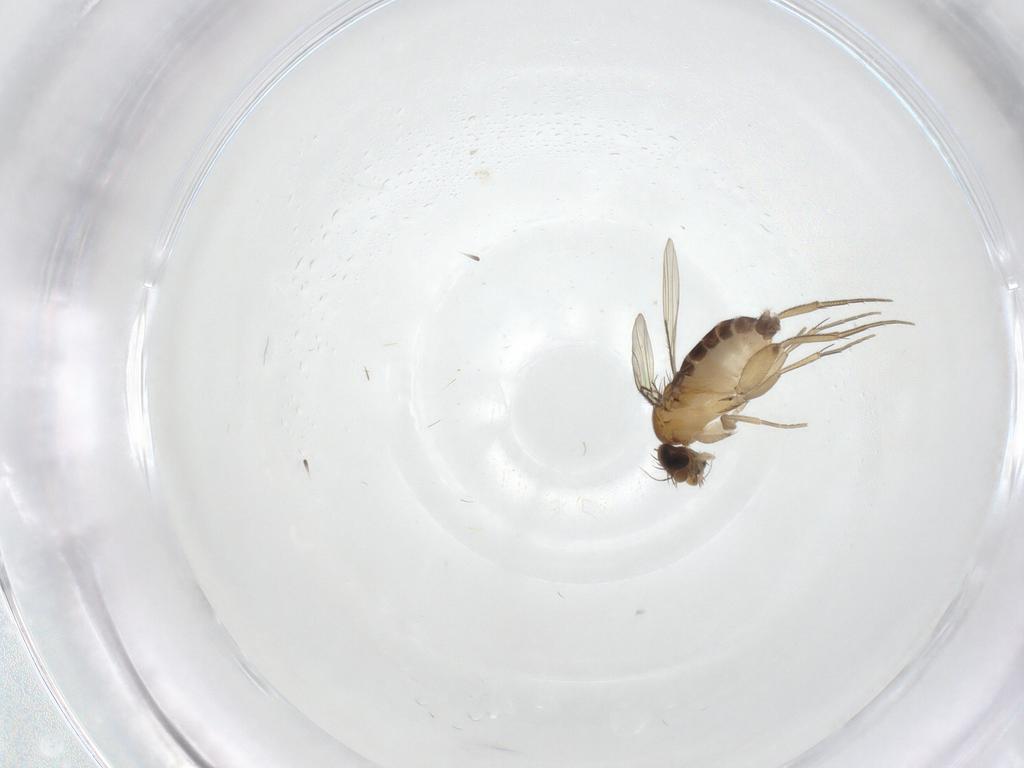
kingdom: Animalia
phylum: Arthropoda
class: Insecta
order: Diptera
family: Phoridae
